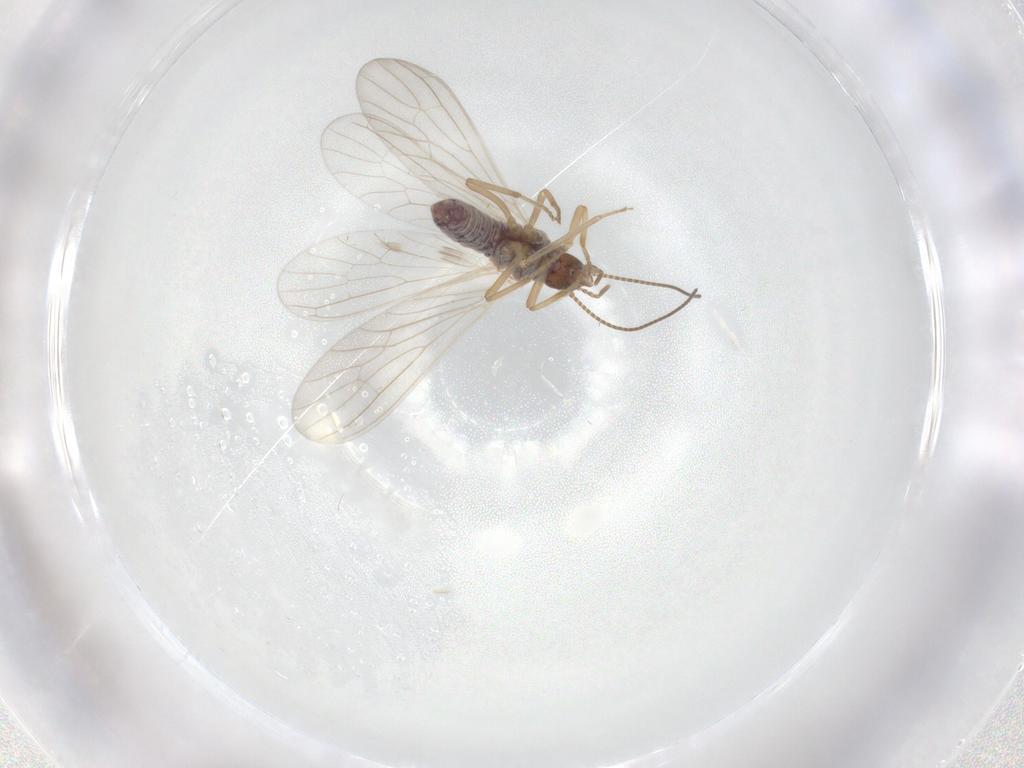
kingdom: Animalia
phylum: Arthropoda
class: Insecta
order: Neuroptera
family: Coniopterygidae
